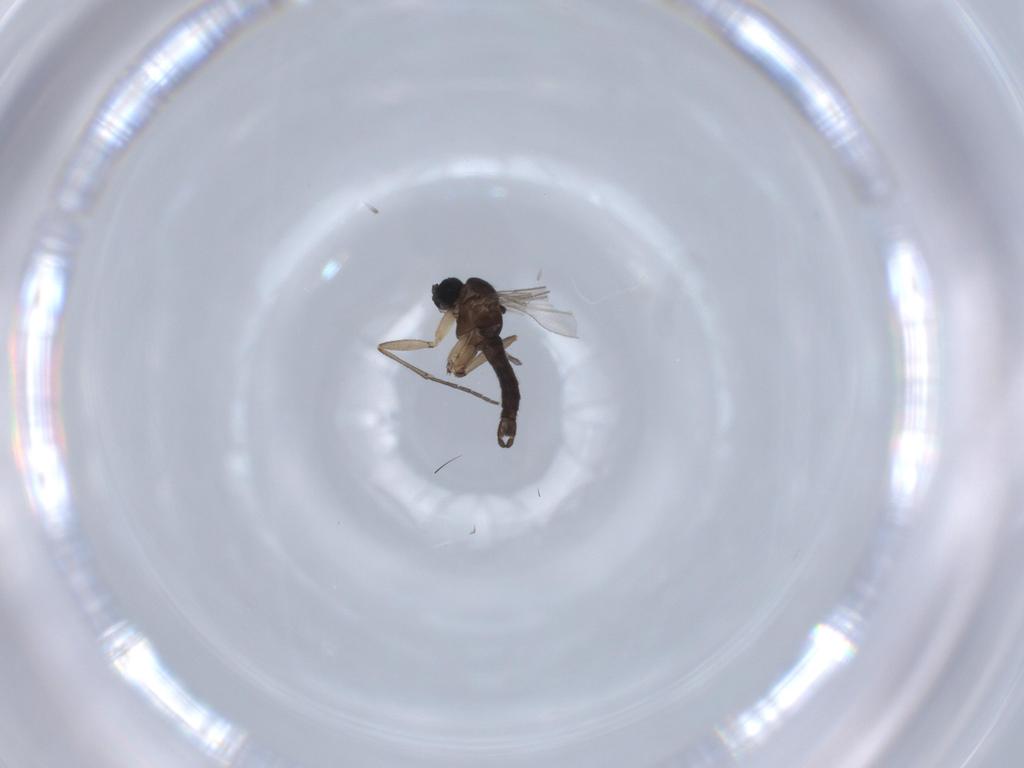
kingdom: Animalia
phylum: Arthropoda
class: Insecta
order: Diptera
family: Sciaridae
